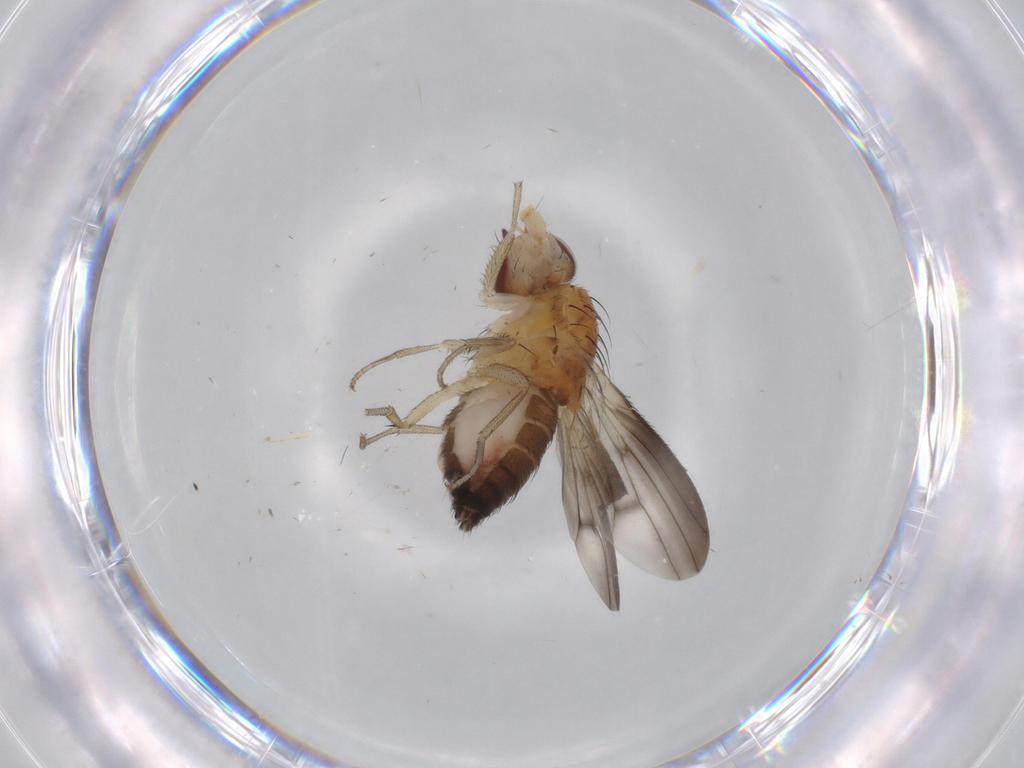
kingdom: Animalia
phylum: Arthropoda
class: Insecta
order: Diptera
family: Heleomyzidae
